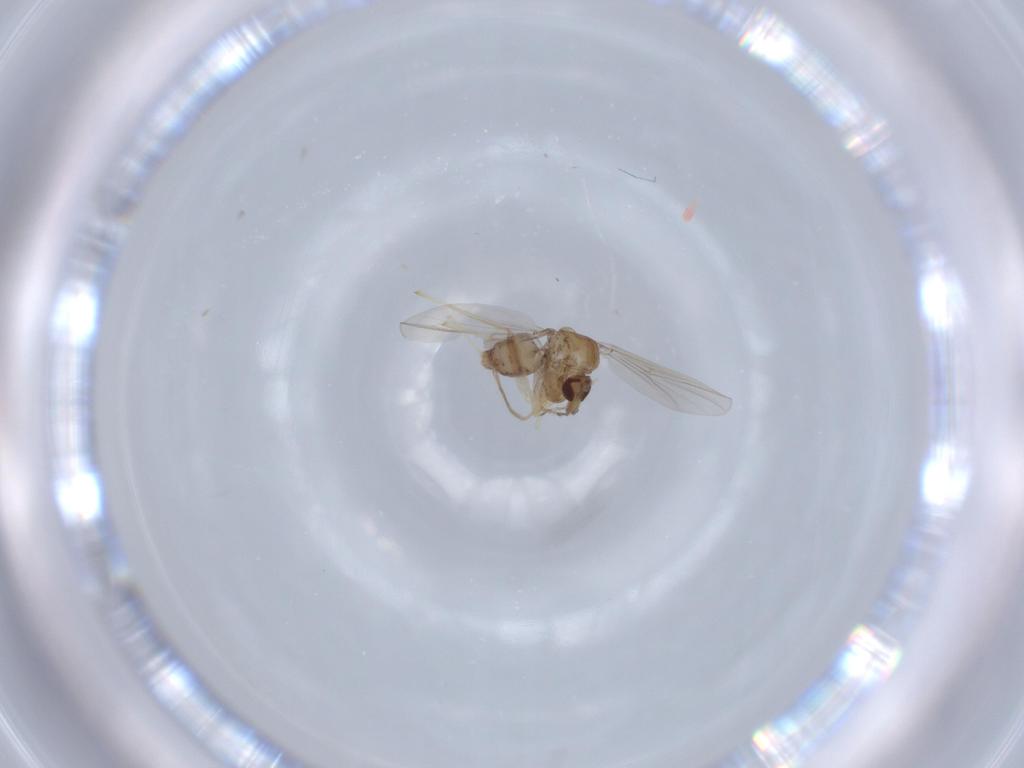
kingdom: Animalia
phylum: Arthropoda
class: Insecta
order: Diptera
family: Chironomidae
